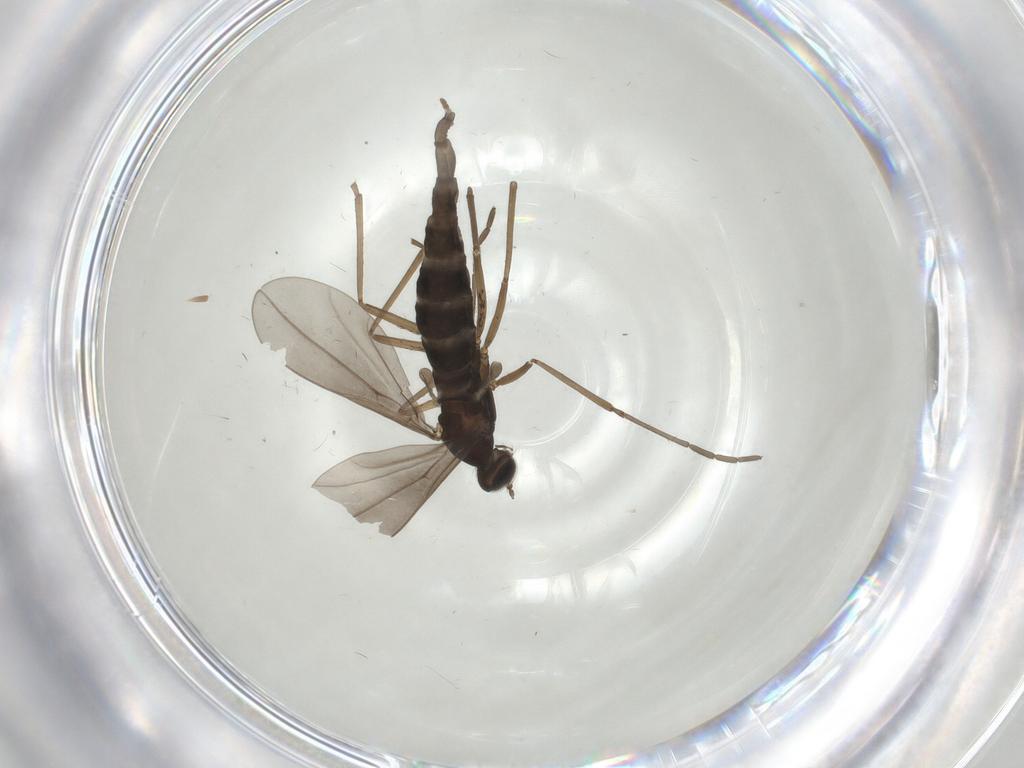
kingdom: Animalia
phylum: Arthropoda
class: Insecta
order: Diptera
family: Cecidomyiidae
